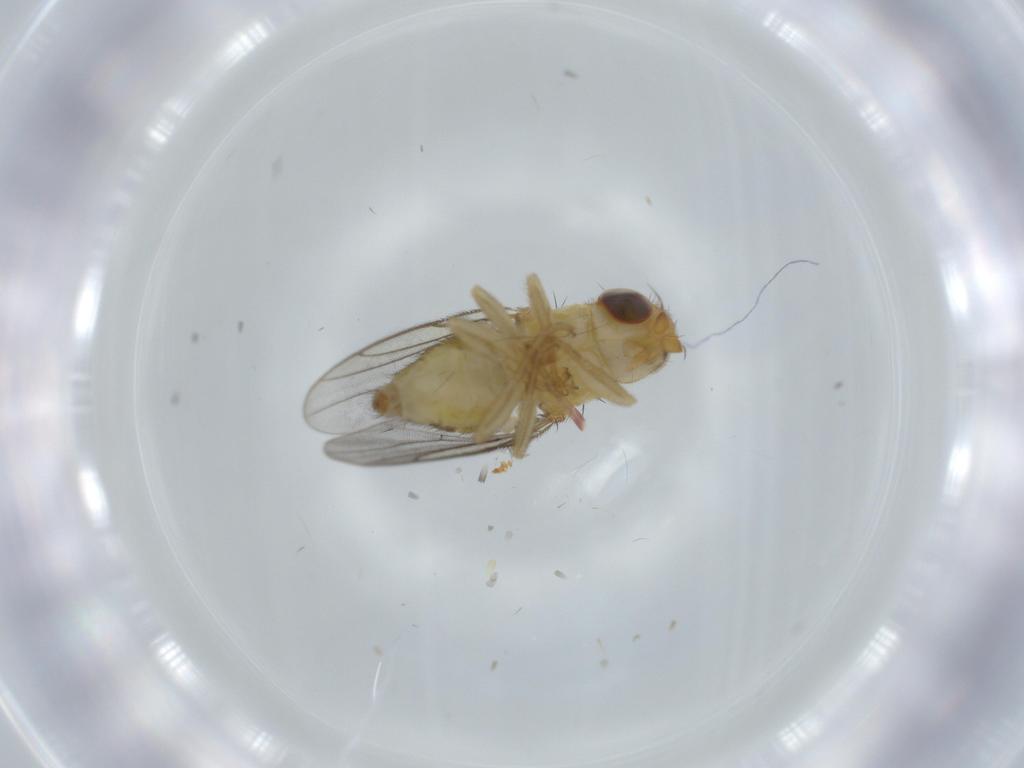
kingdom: Animalia
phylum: Arthropoda
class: Insecta
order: Diptera
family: Chloropidae
